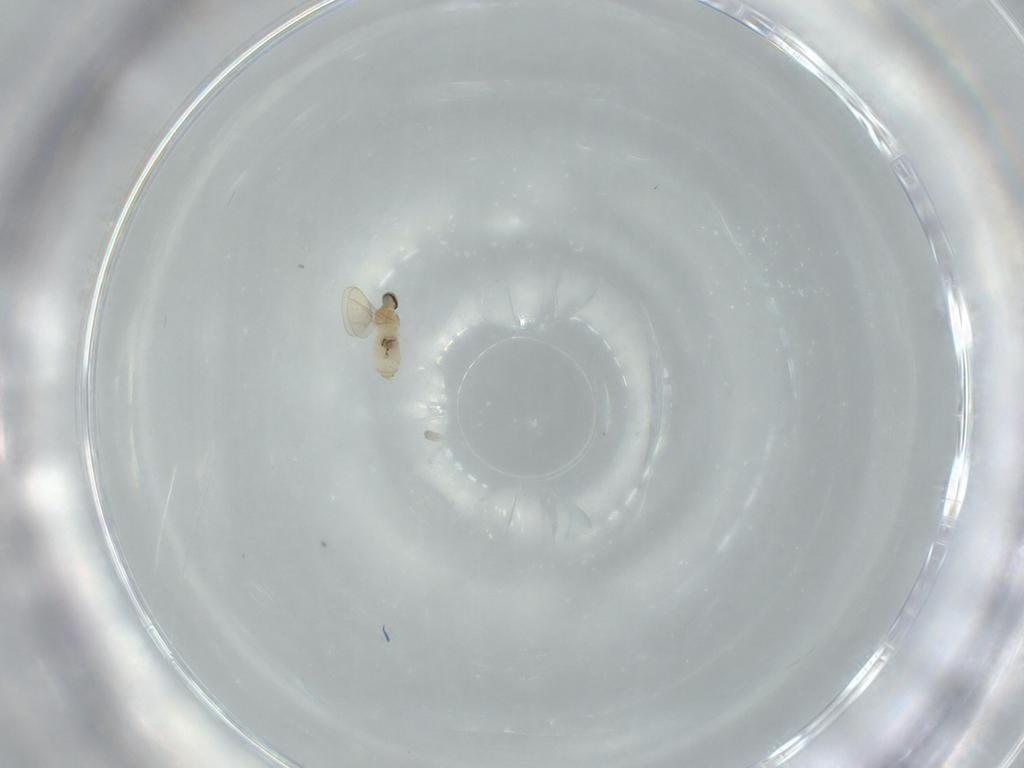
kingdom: Animalia
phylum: Arthropoda
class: Insecta
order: Diptera
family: Cecidomyiidae
